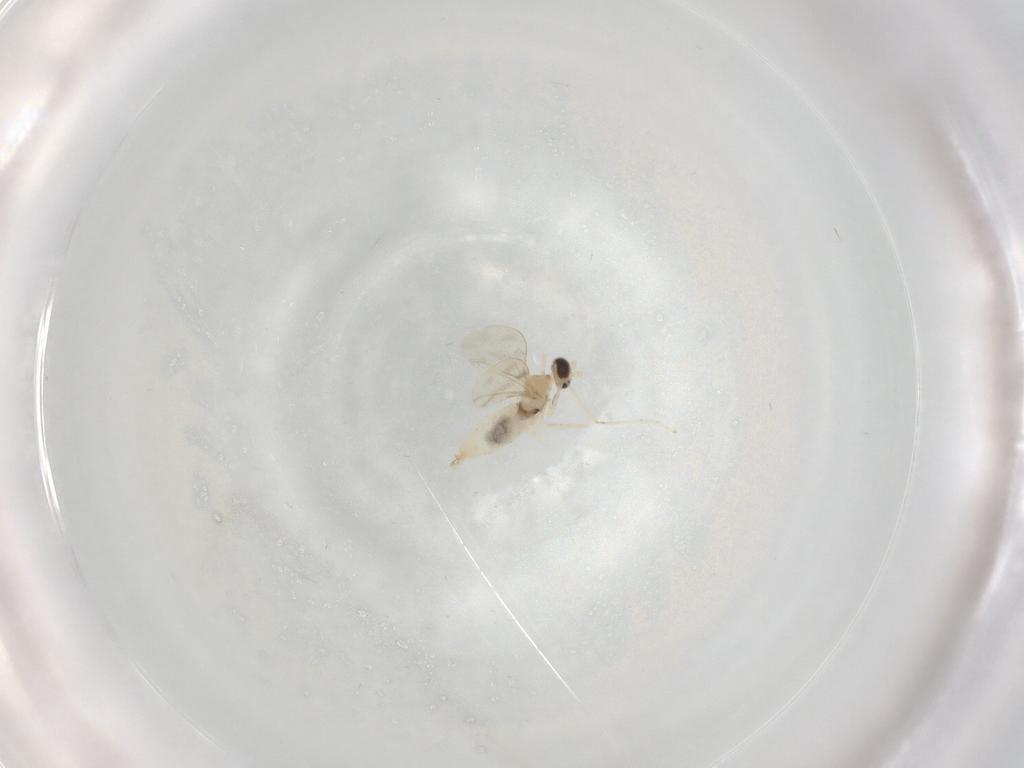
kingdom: Animalia
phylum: Arthropoda
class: Insecta
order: Diptera
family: Cecidomyiidae
